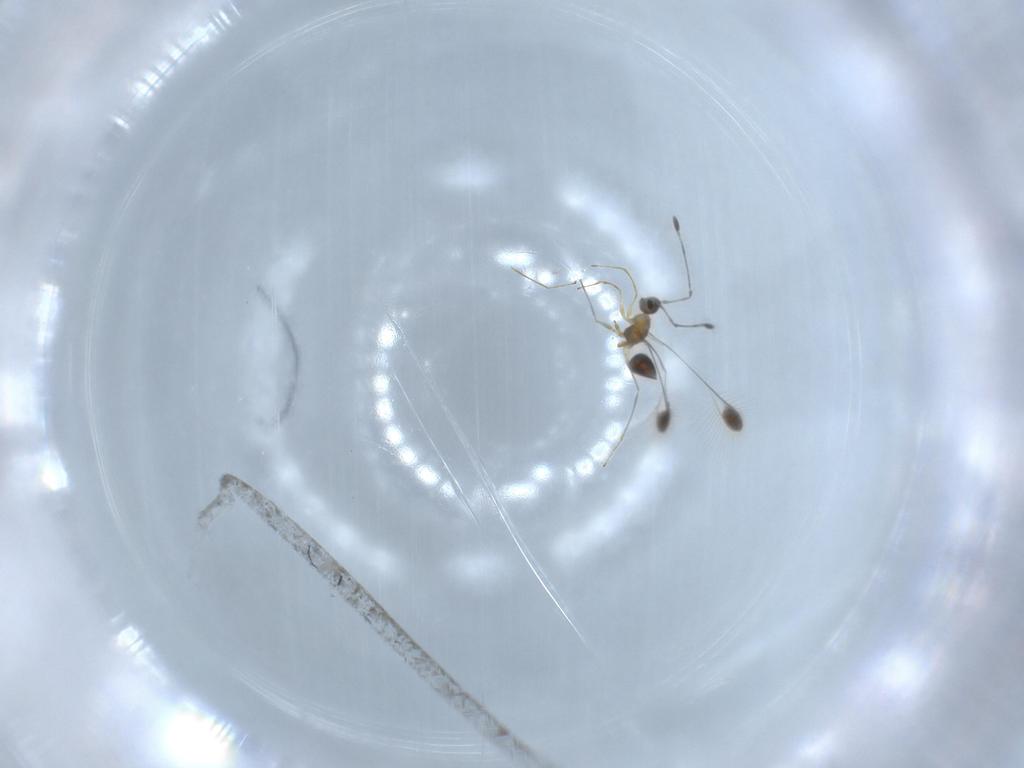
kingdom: Animalia
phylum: Arthropoda
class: Insecta
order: Hymenoptera
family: Mymaridae
